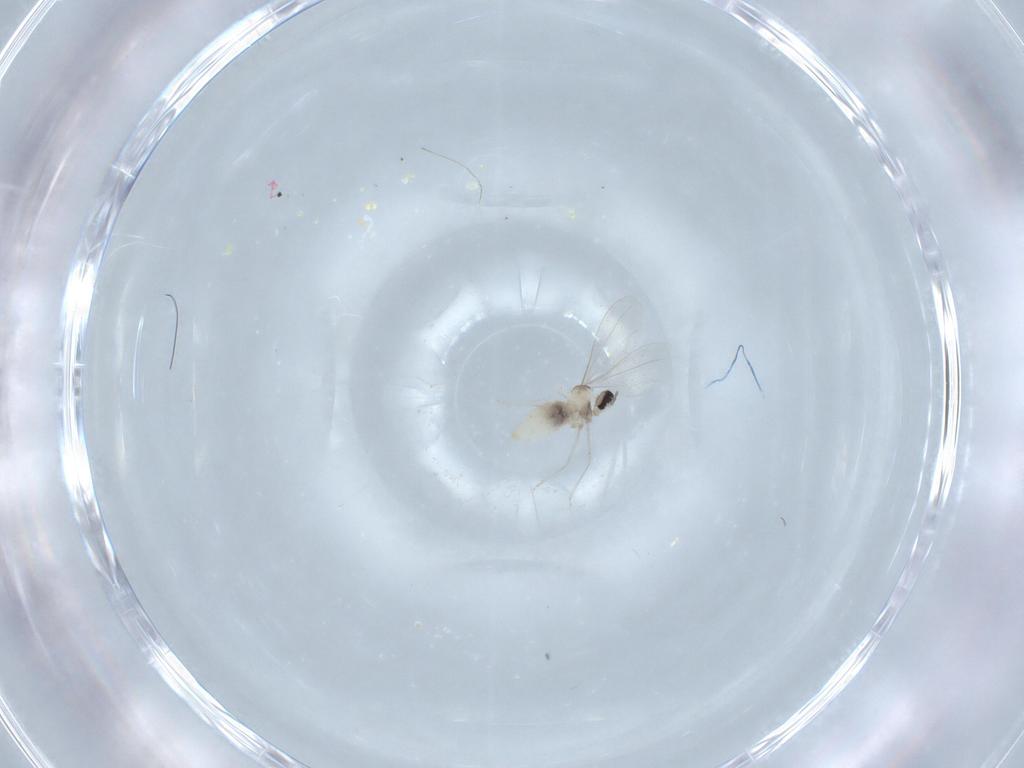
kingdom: Animalia
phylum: Arthropoda
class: Insecta
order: Diptera
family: Cecidomyiidae
